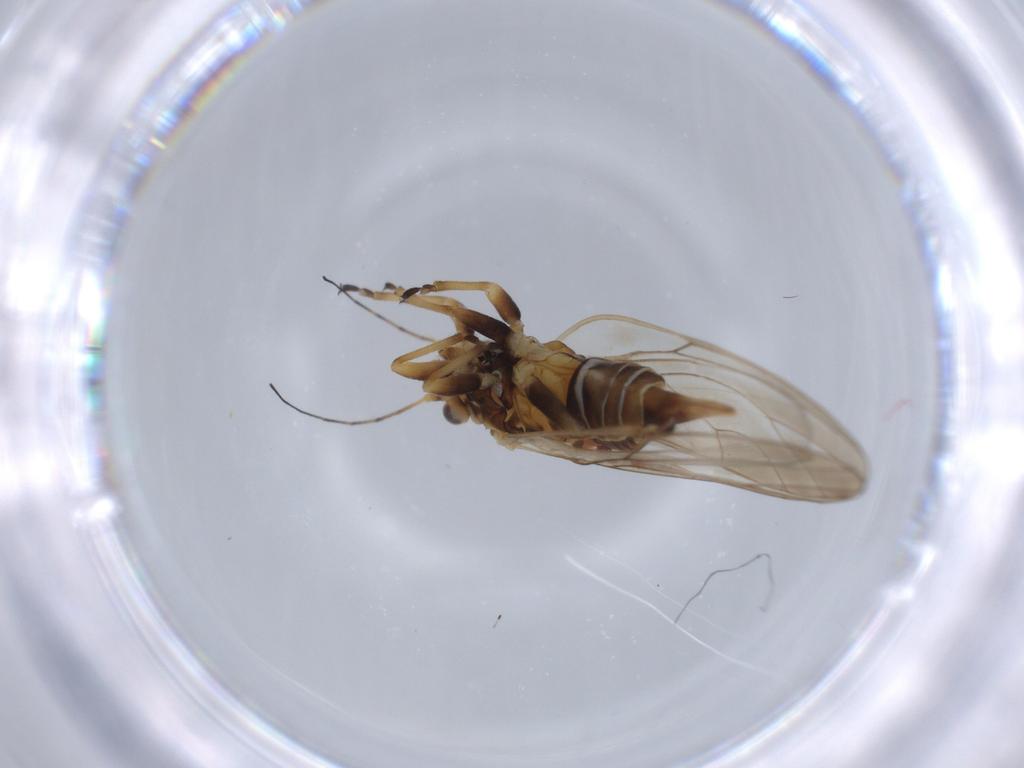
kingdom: Animalia
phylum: Arthropoda
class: Insecta
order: Hemiptera
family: Psyllidae
